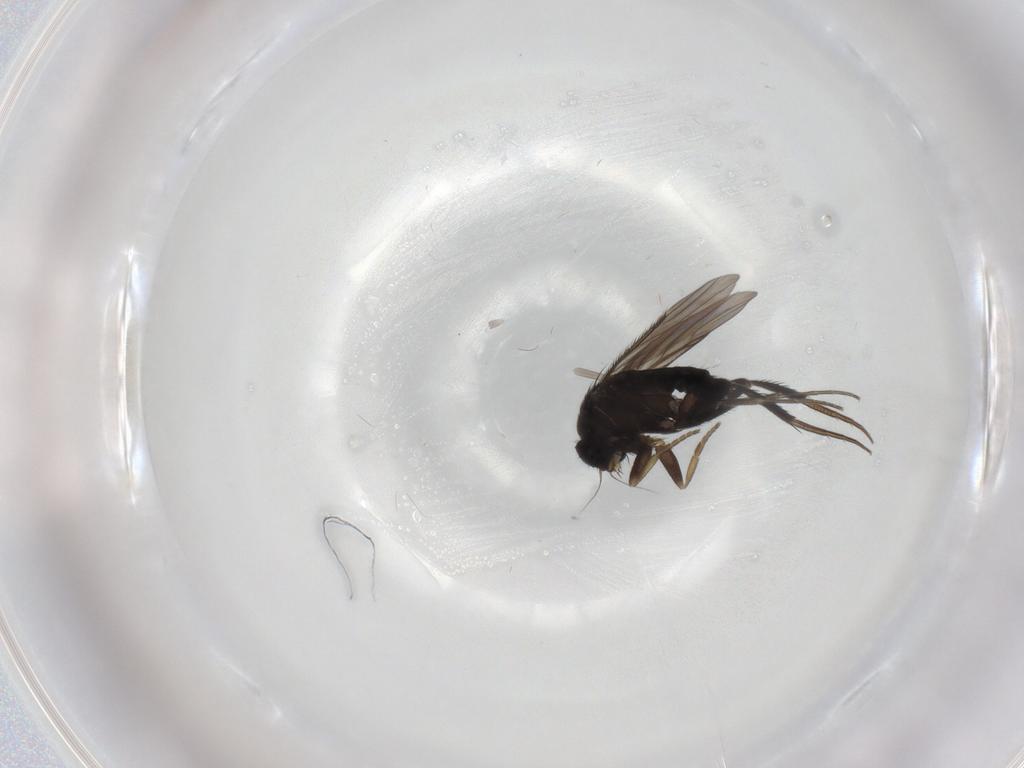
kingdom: Animalia
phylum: Arthropoda
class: Insecta
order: Diptera
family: Phoridae
